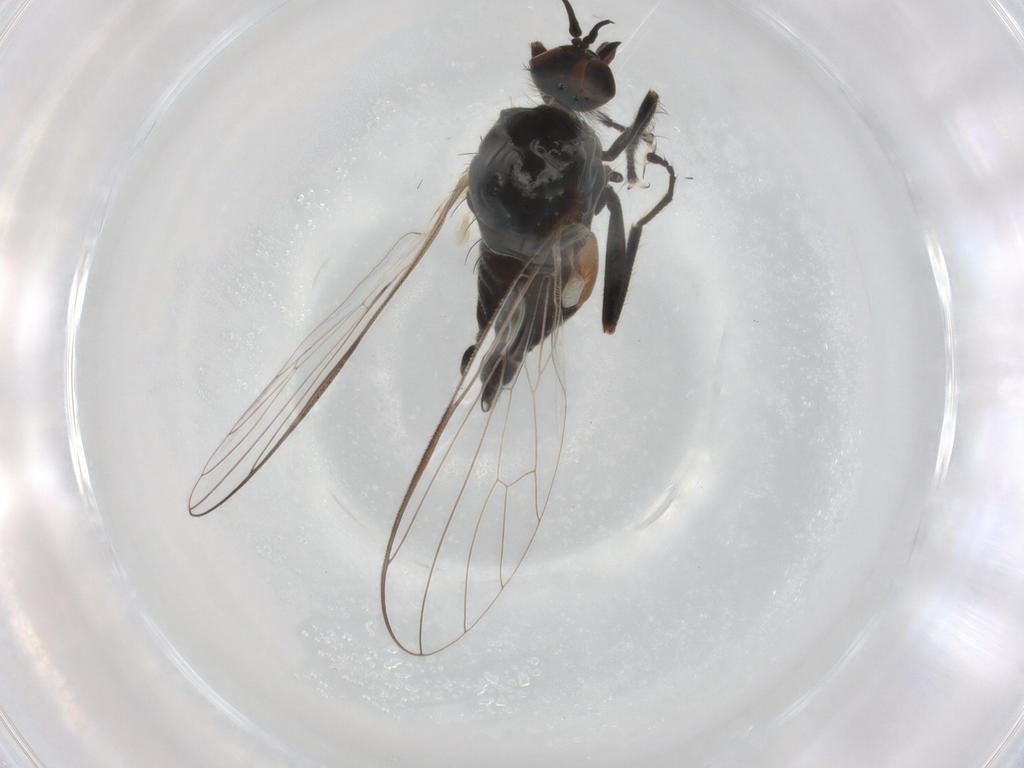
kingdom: Animalia
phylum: Arthropoda
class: Insecta
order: Diptera
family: Empididae
